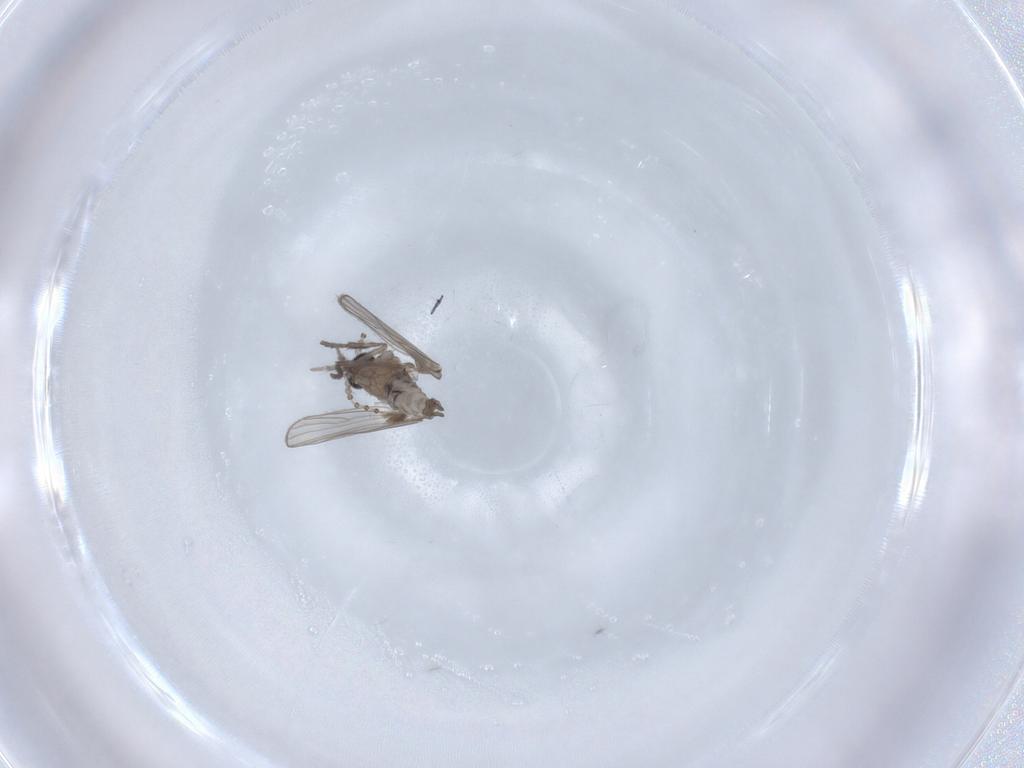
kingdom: Animalia
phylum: Arthropoda
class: Insecta
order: Diptera
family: Psychodidae
